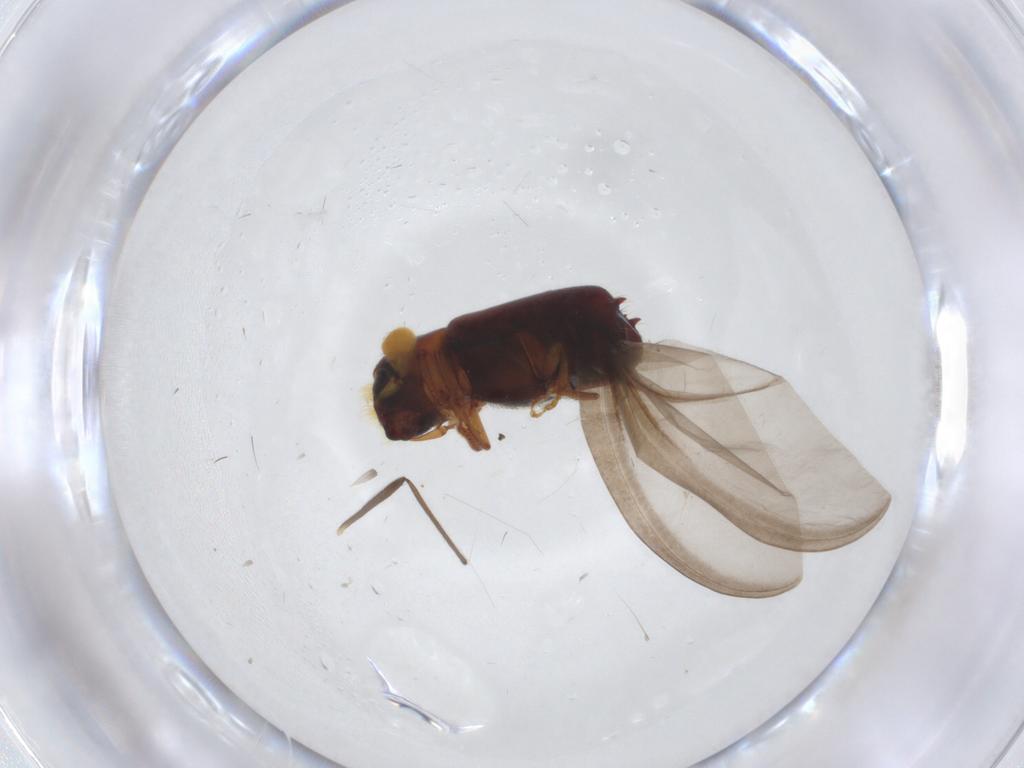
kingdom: Animalia
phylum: Arthropoda
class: Insecta
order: Coleoptera
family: Curculionidae
